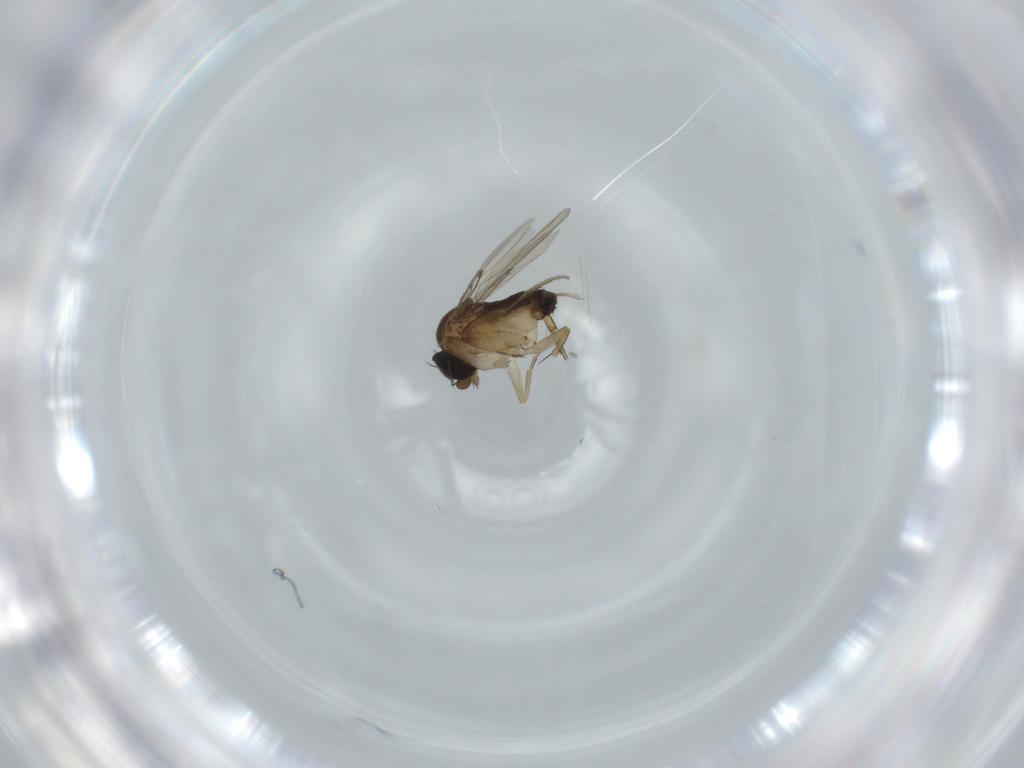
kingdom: Animalia
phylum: Arthropoda
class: Insecta
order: Diptera
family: Phoridae
